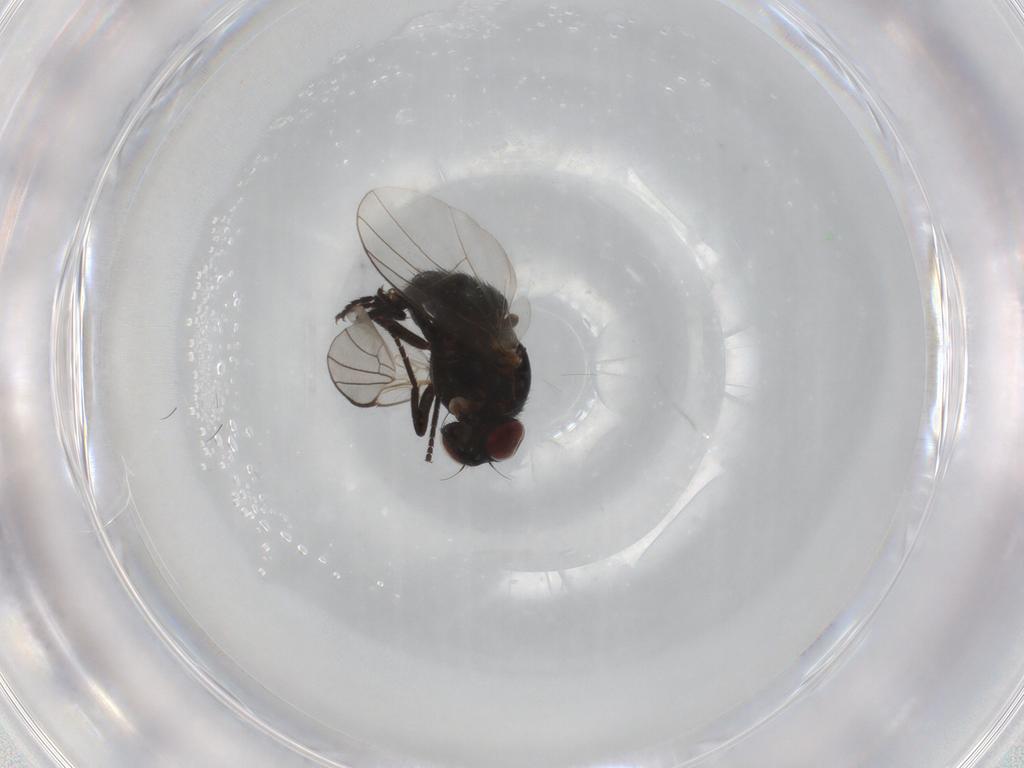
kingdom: Animalia
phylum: Arthropoda
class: Insecta
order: Diptera
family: Agromyzidae
